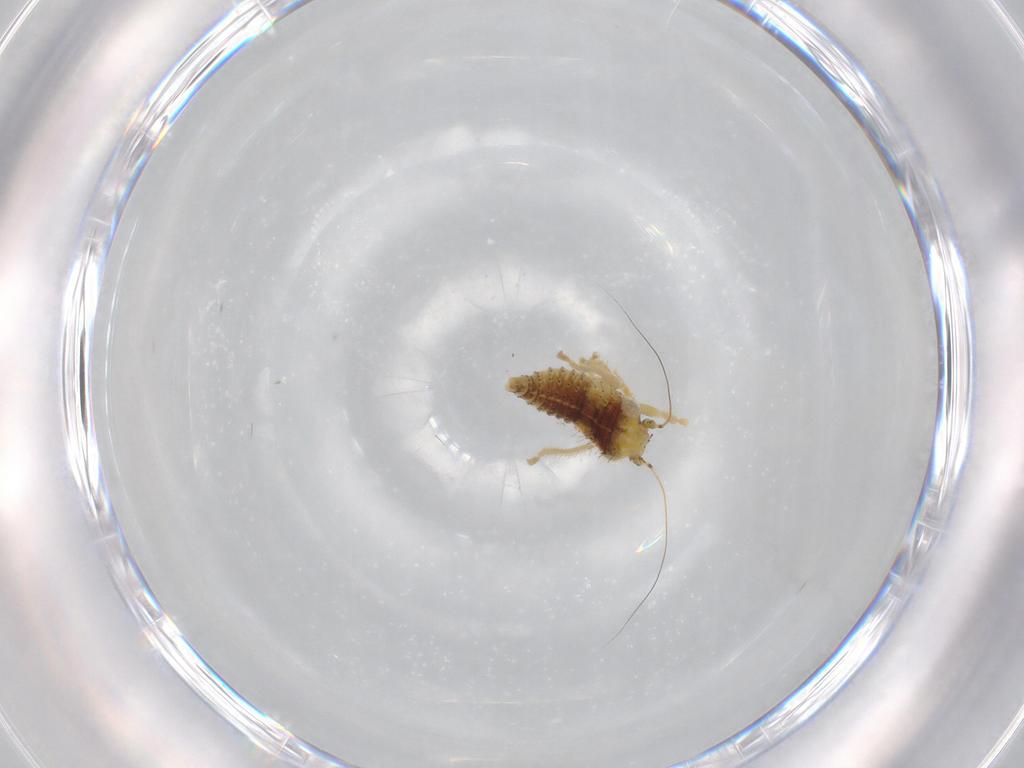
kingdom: Animalia
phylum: Arthropoda
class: Insecta
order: Hemiptera
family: Cicadellidae
